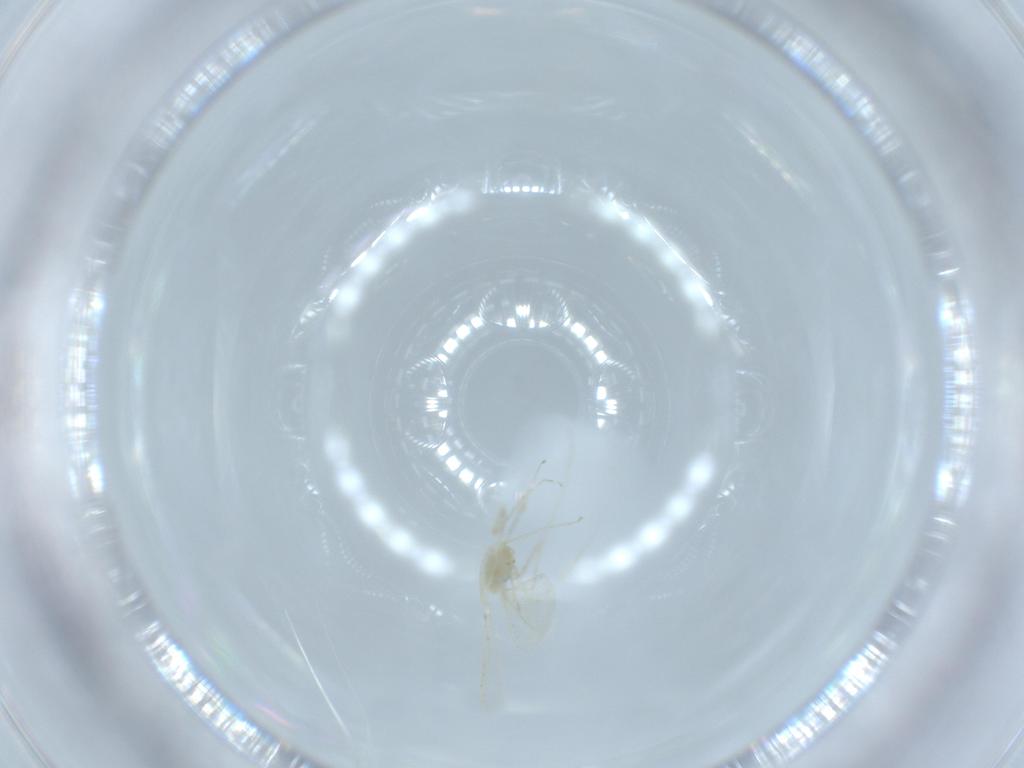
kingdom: Animalia
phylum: Arthropoda
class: Insecta
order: Diptera
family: Cecidomyiidae
